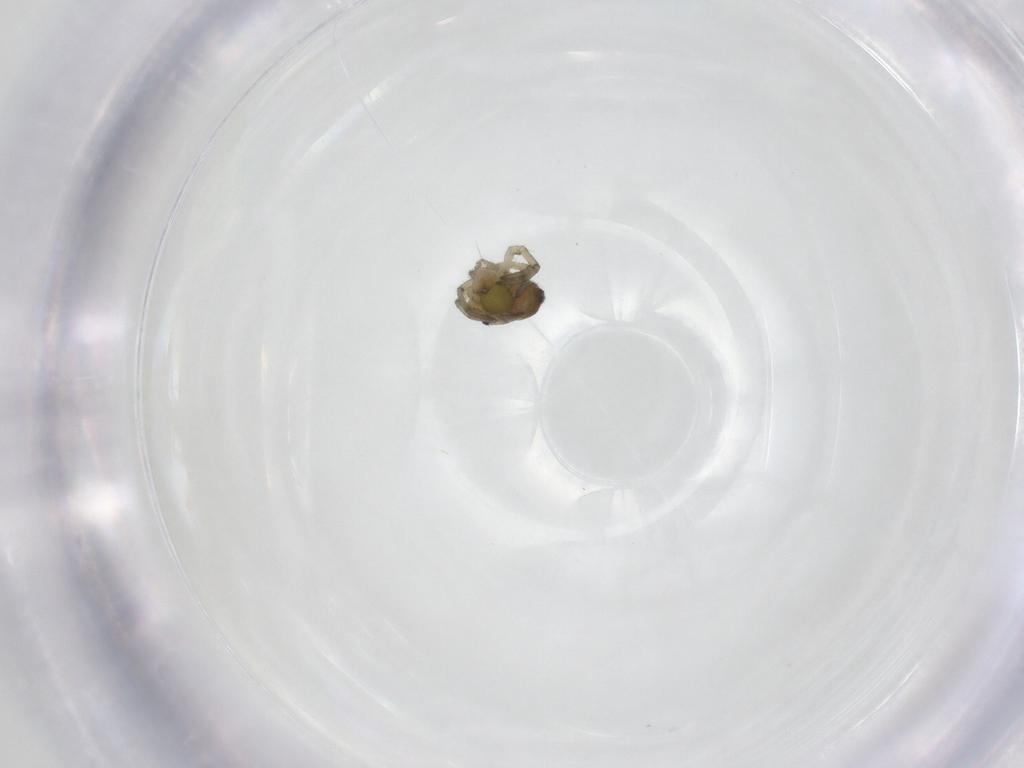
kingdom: Animalia
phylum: Arthropoda
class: Arachnida
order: Araneae
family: Tetragnathidae
